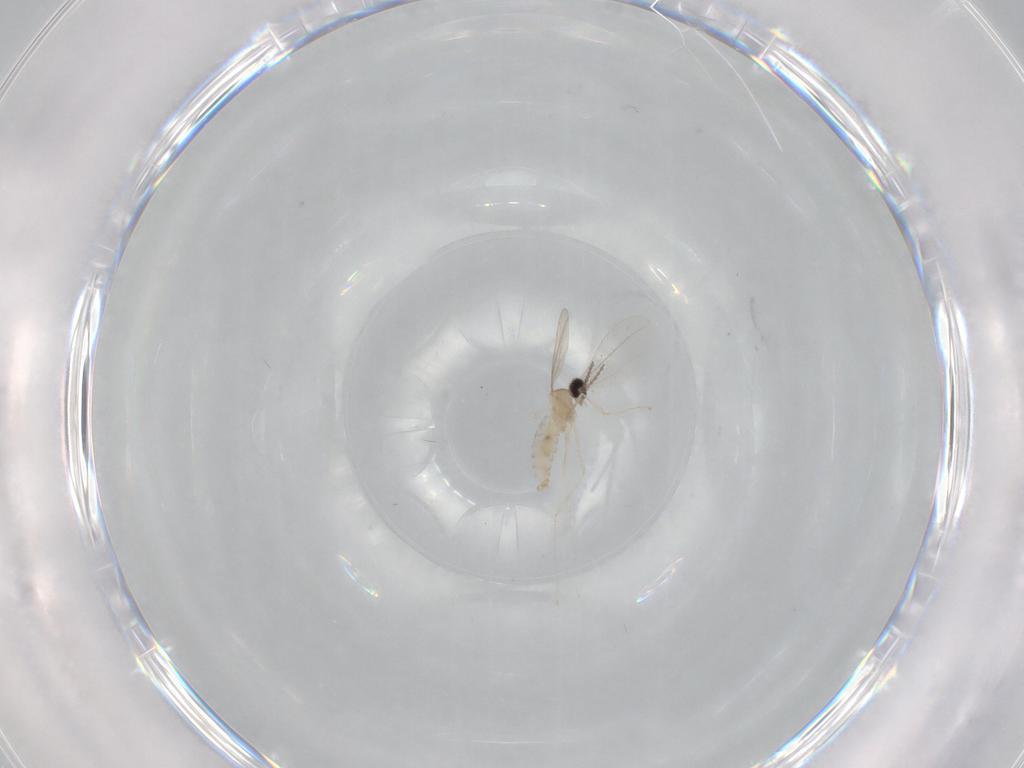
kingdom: Animalia
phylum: Arthropoda
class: Insecta
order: Diptera
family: Cecidomyiidae
